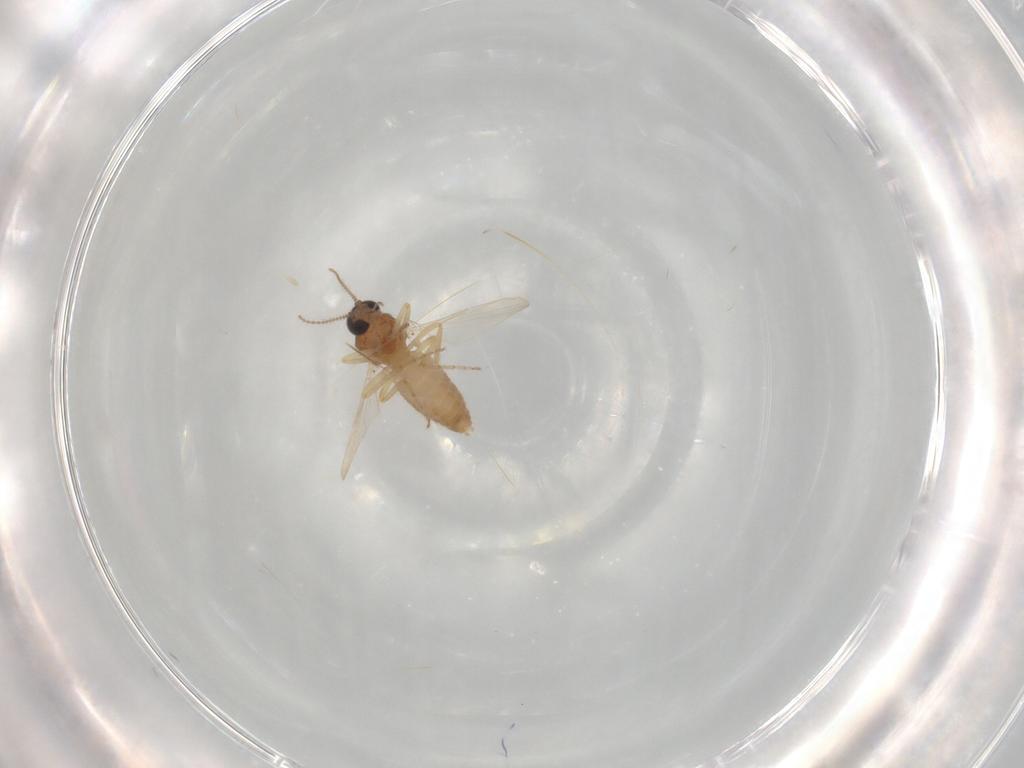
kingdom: Animalia
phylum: Arthropoda
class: Insecta
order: Diptera
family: Ceratopogonidae
